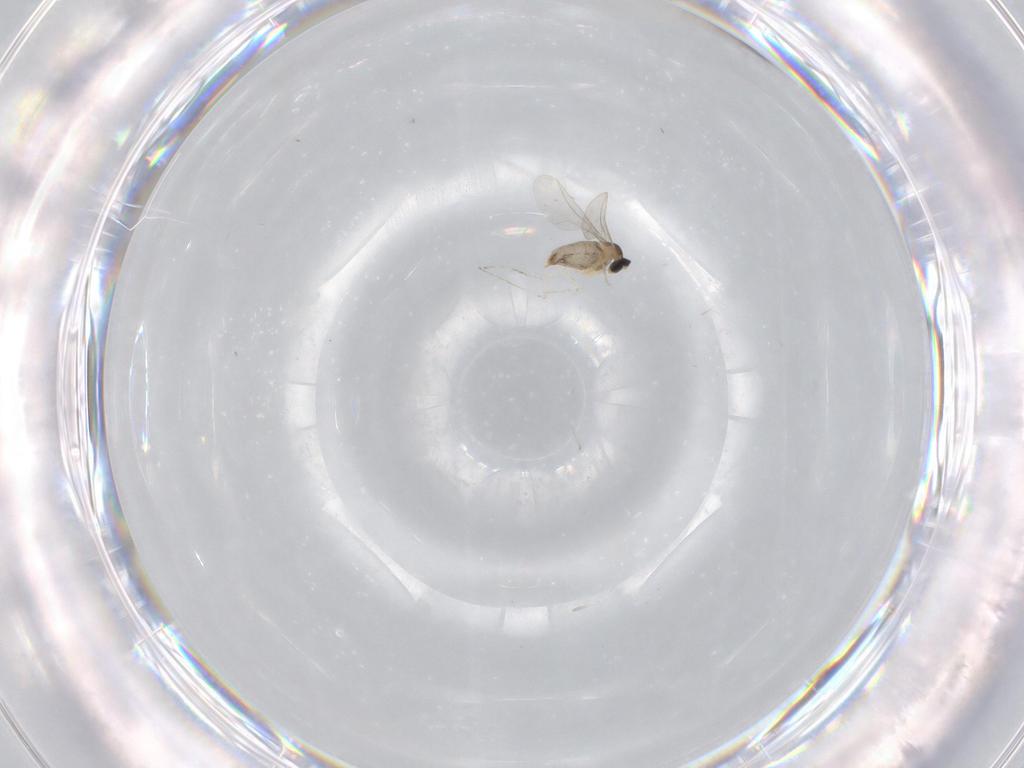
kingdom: Animalia
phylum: Arthropoda
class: Insecta
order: Diptera
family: Cecidomyiidae
